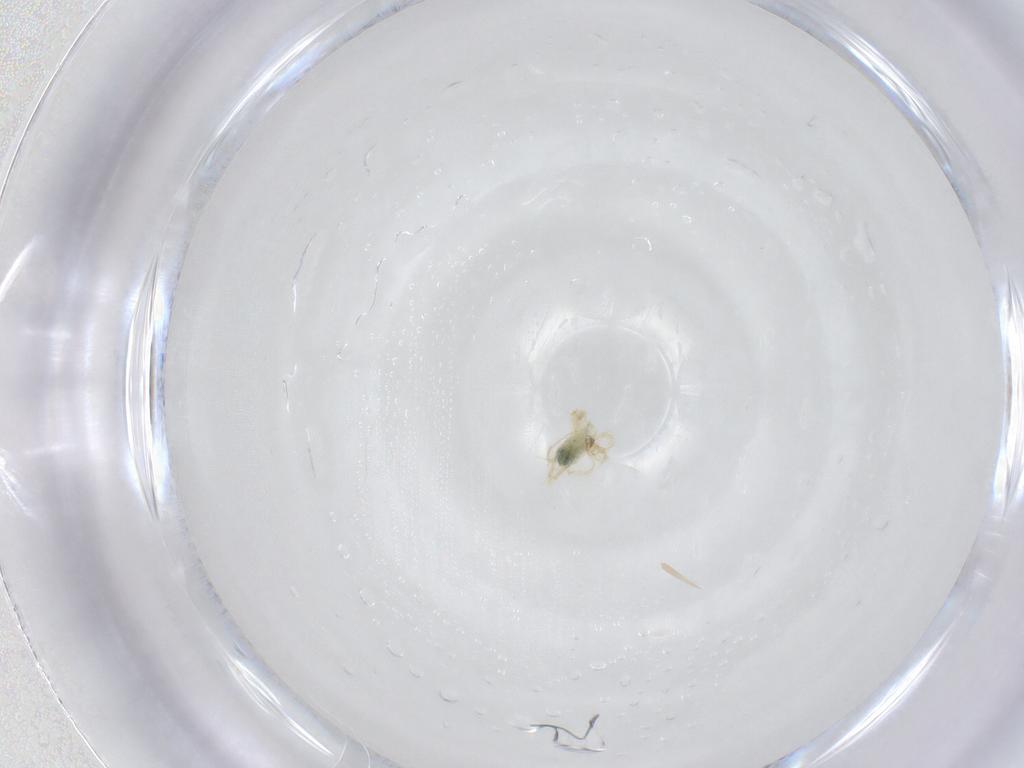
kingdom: Animalia
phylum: Arthropoda
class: Arachnida
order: Trombidiformes
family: Anystidae
